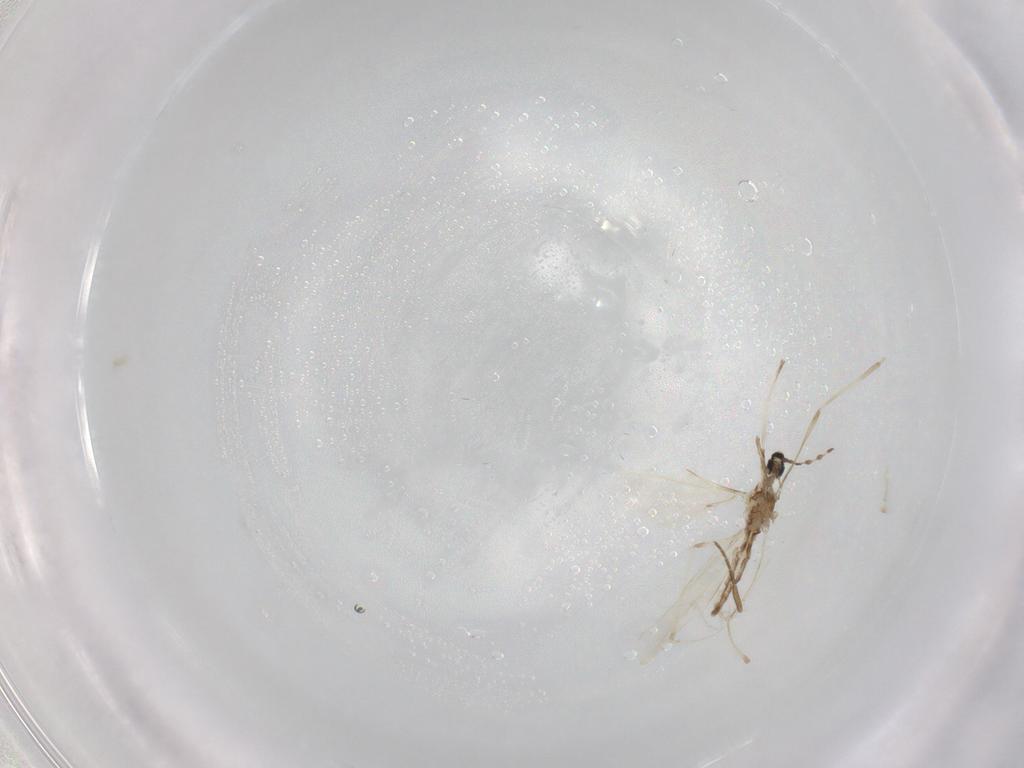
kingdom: Animalia
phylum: Arthropoda
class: Insecta
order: Diptera
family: Cecidomyiidae
